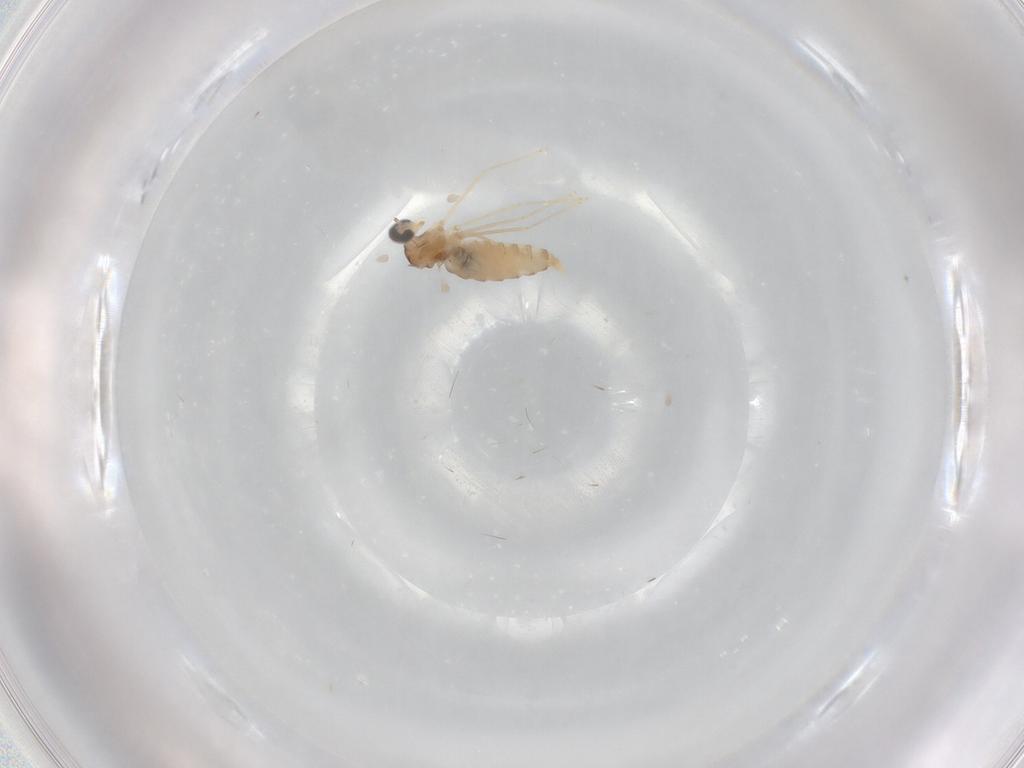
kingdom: Animalia
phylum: Arthropoda
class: Insecta
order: Diptera
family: Cecidomyiidae
